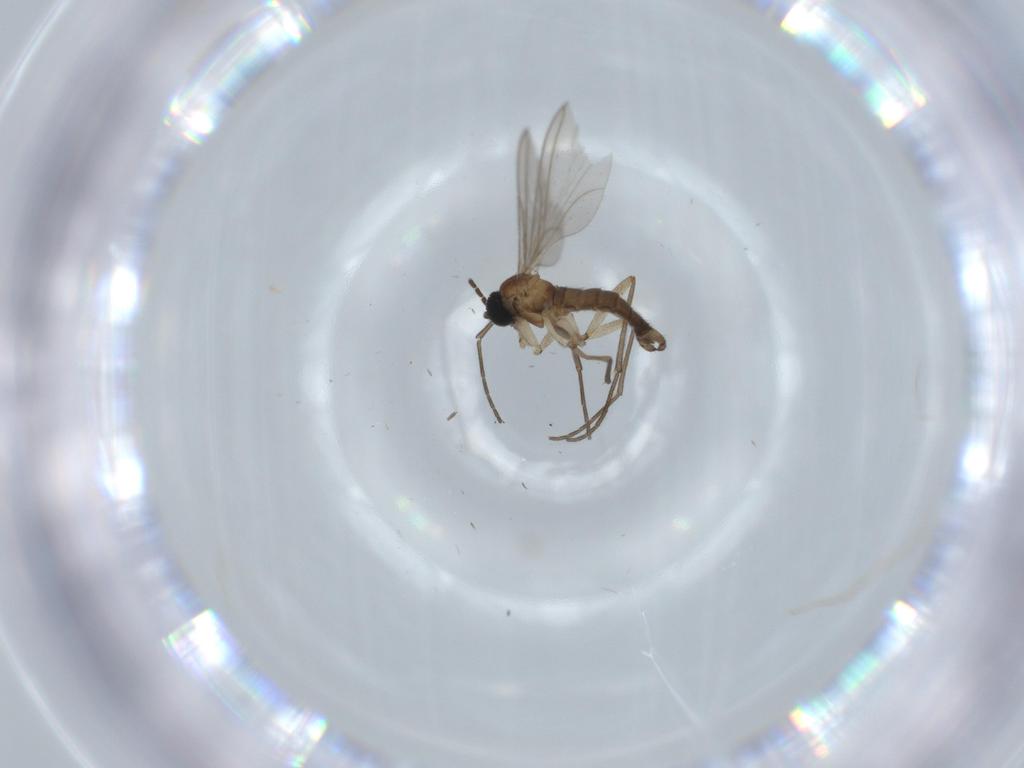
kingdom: Animalia
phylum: Arthropoda
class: Insecta
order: Diptera
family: Sciaridae
